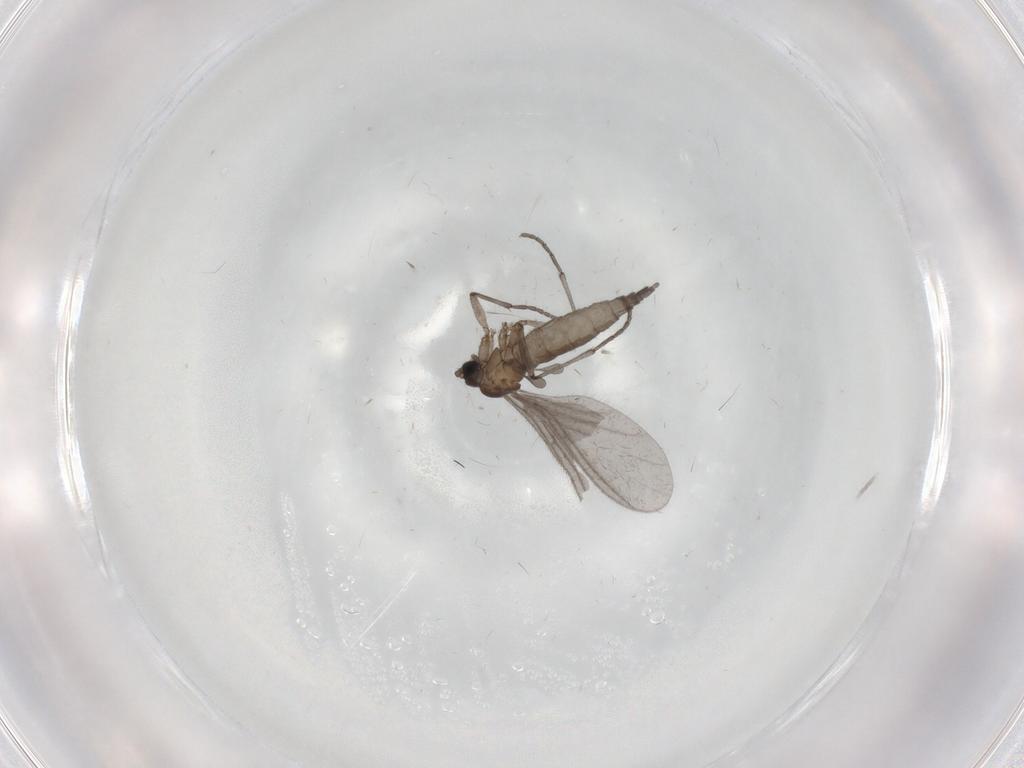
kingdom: Animalia
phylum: Arthropoda
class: Insecta
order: Diptera
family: Sciaridae
